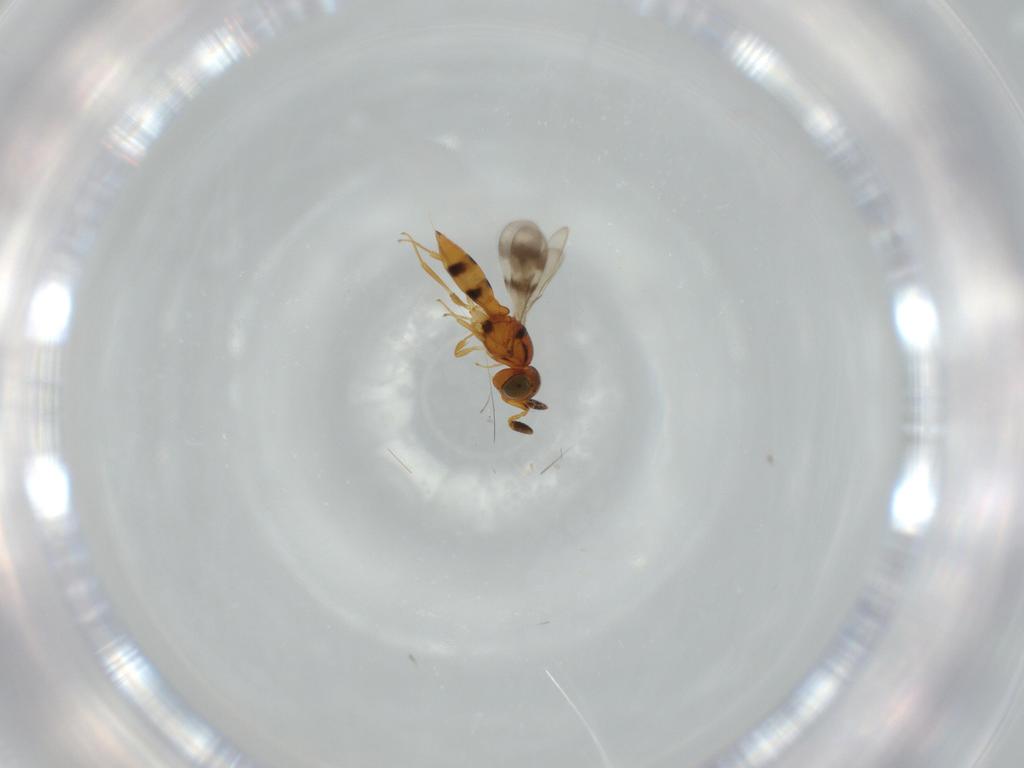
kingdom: Animalia
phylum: Arthropoda
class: Insecta
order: Hymenoptera
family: Scelionidae
